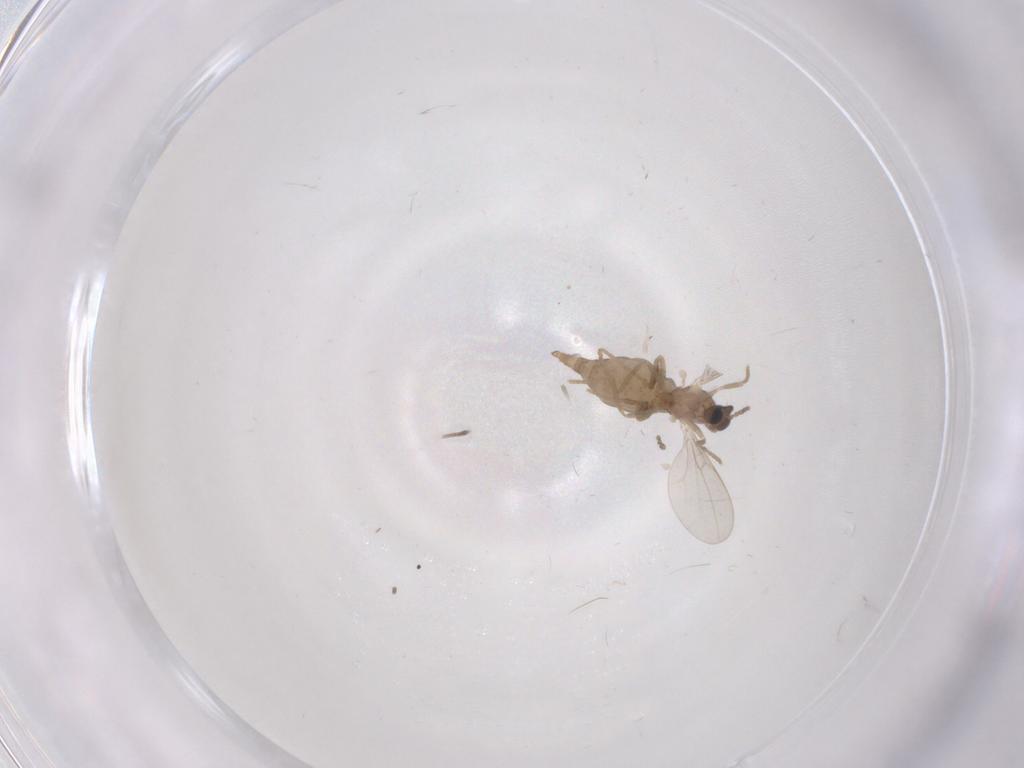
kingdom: Animalia
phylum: Arthropoda
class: Insecta
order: Diptera
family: Cecidomyiidae
